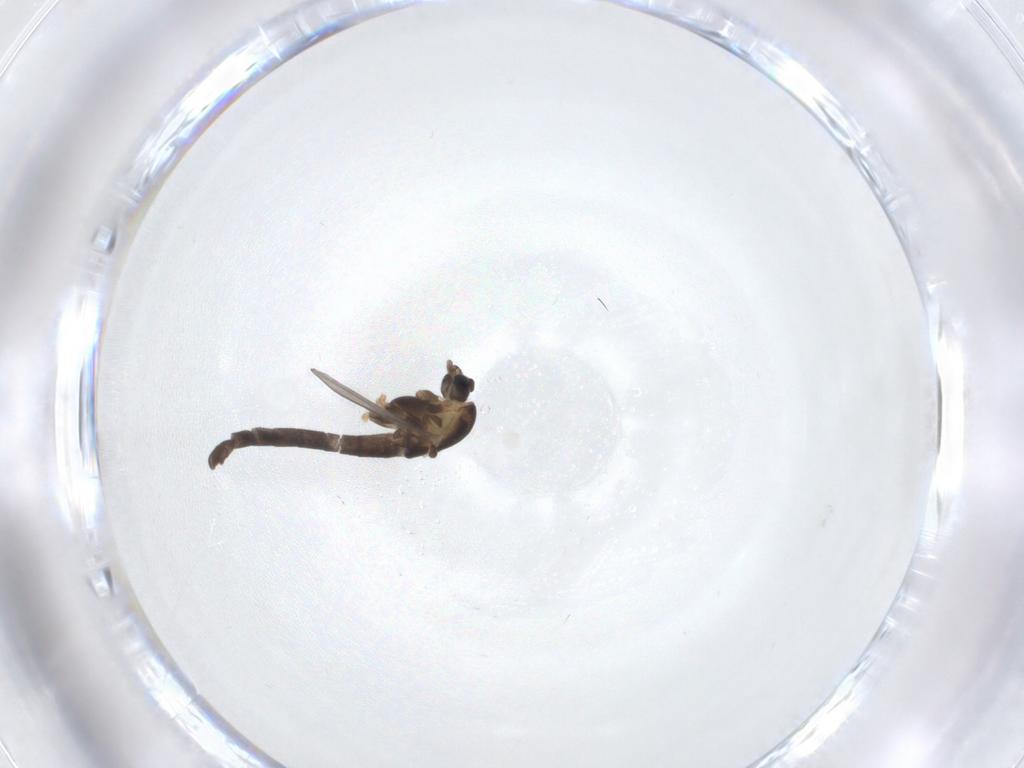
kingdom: Animalia
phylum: Arthropoda
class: Insecta
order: Diptera
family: Chironomidae
